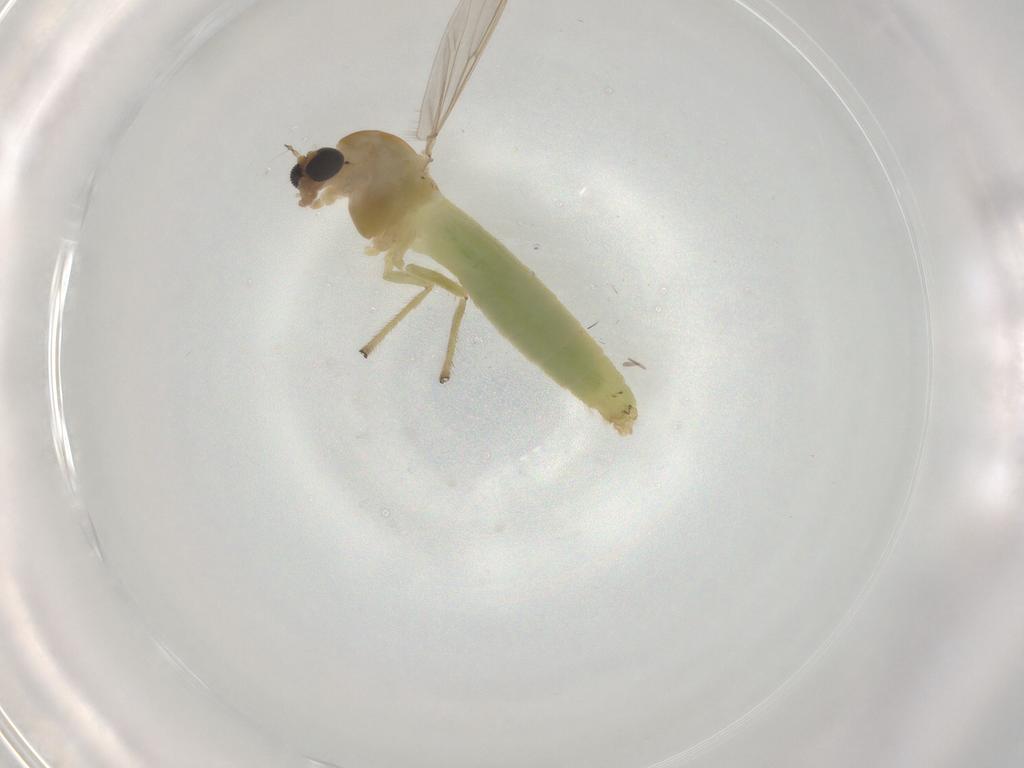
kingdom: Animalia
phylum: Arthropoda
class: Insecta
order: Diptera
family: Chironomidae
